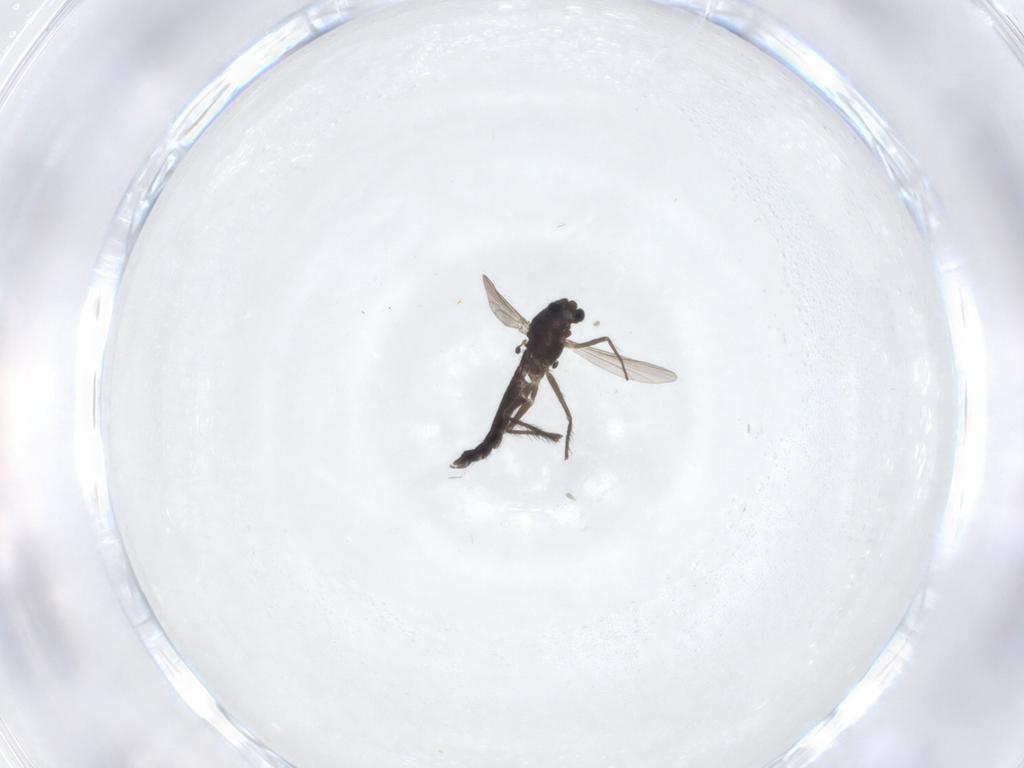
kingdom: Animalia
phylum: Arthropoda
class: Insecta
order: Diptera
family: Chironomidae
